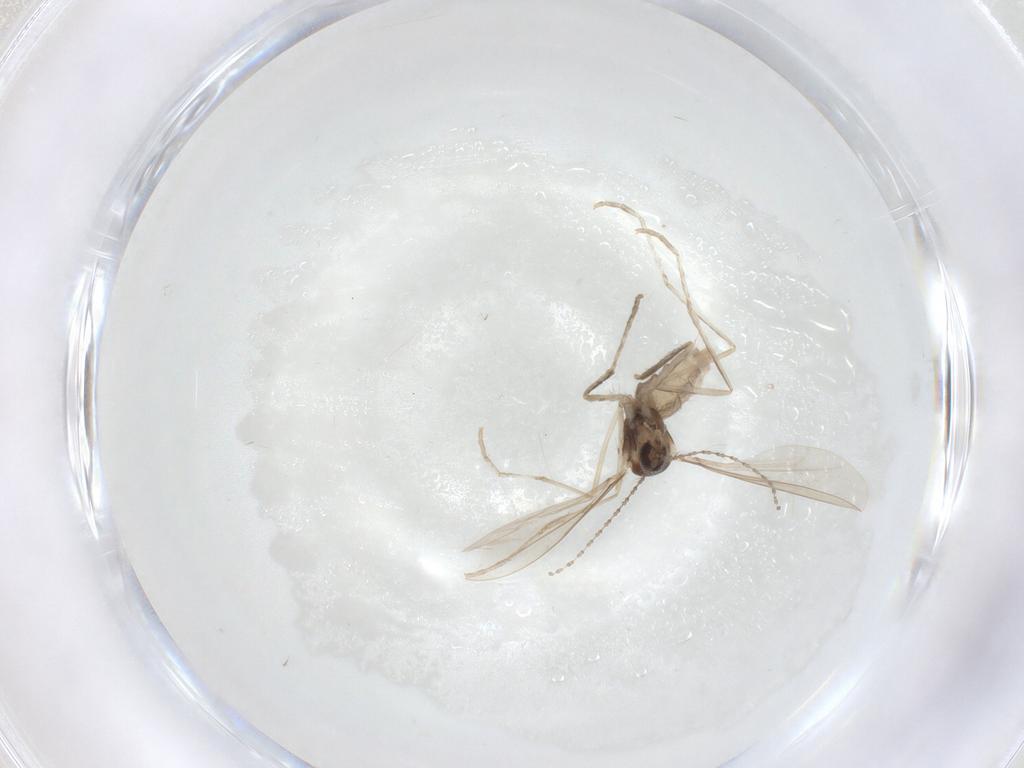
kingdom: Animalia
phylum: Arthropoda
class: Insecta
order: Diptera
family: Cecidomyiidae
